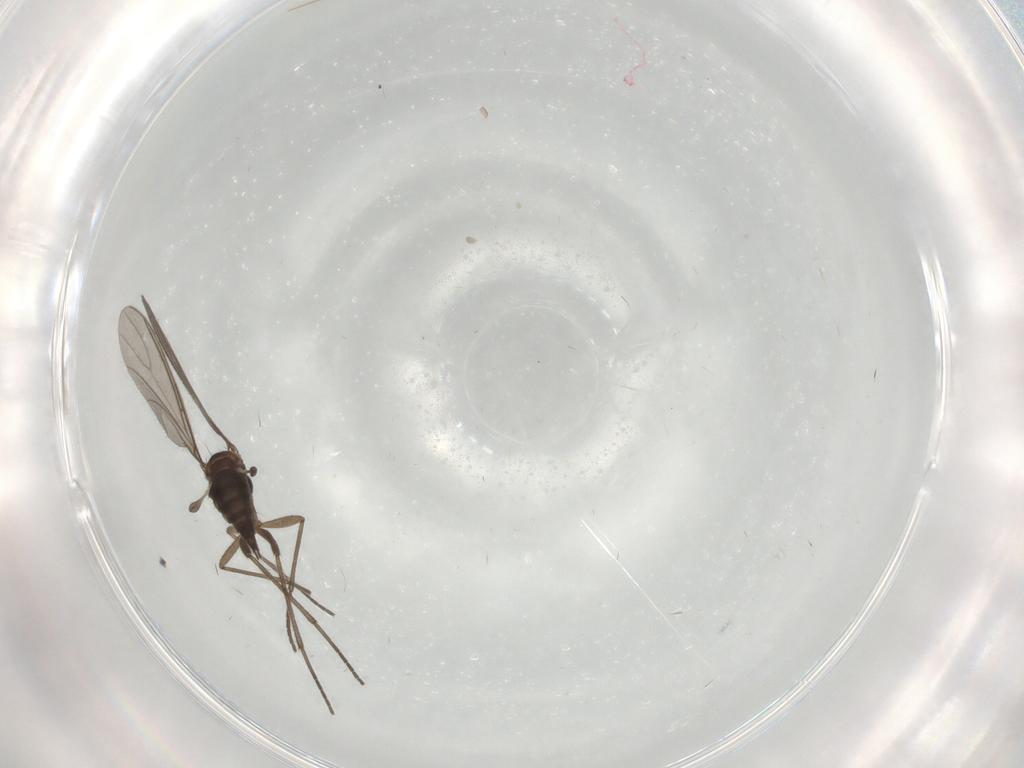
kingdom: Animalia
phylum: Arthropoda
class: Insecta
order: Diptera
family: Sciaridae
